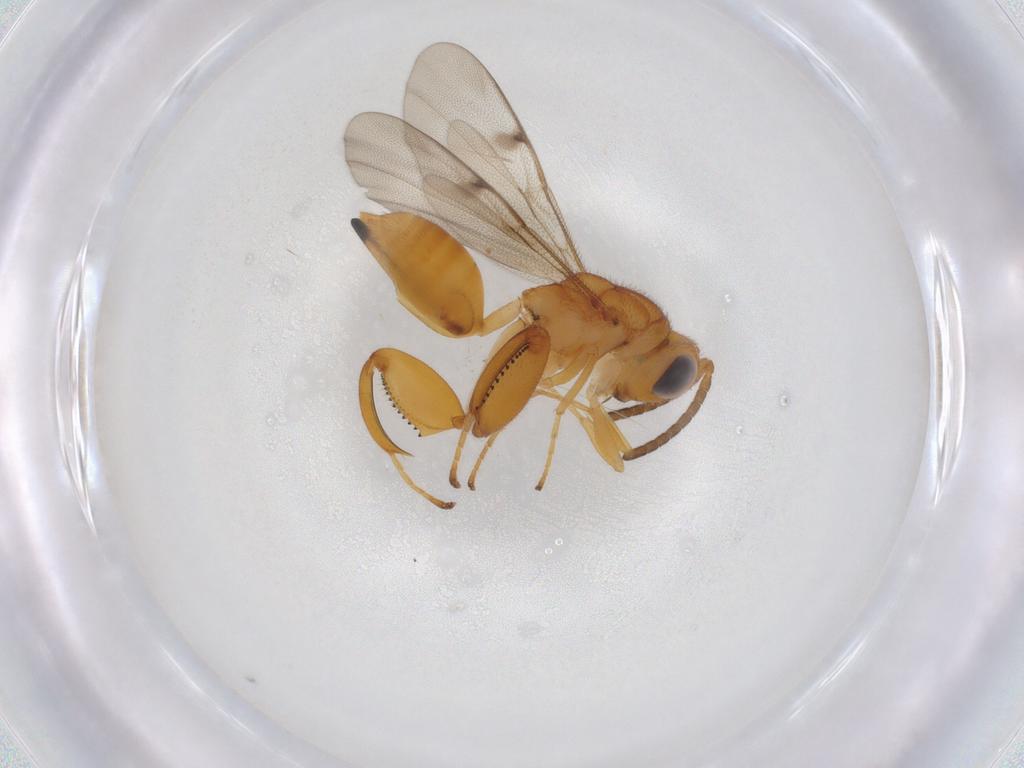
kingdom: Animalia
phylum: Arthropoda
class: Insecta
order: Hymenoptera
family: Chalcididae
